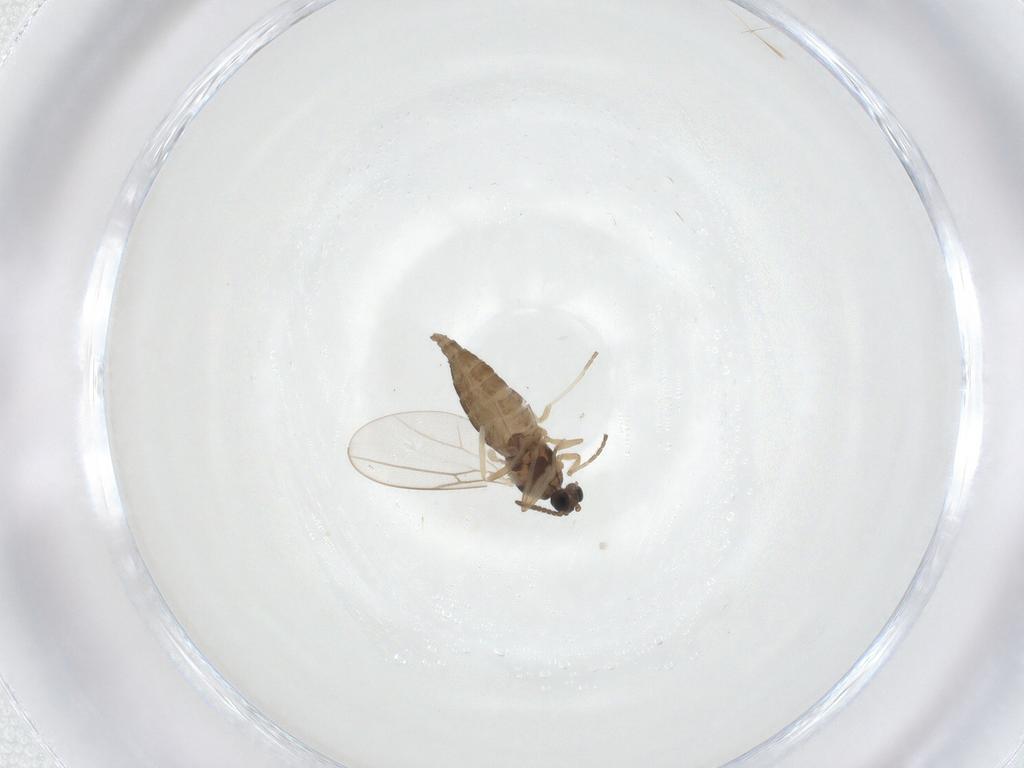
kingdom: Animalia
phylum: Arthropoda
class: Insecta
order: Diptera
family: Cecidomyiidae
